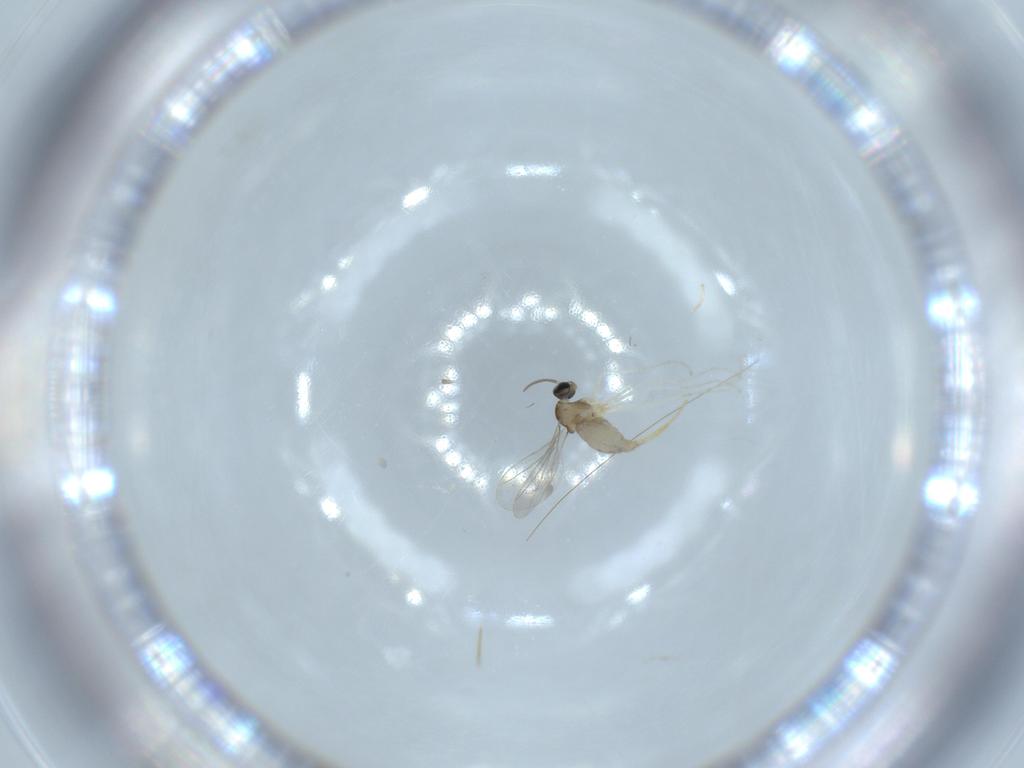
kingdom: Animalia
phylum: Arthropoda
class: Insecta
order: Diptera
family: Cecidomyiidae
